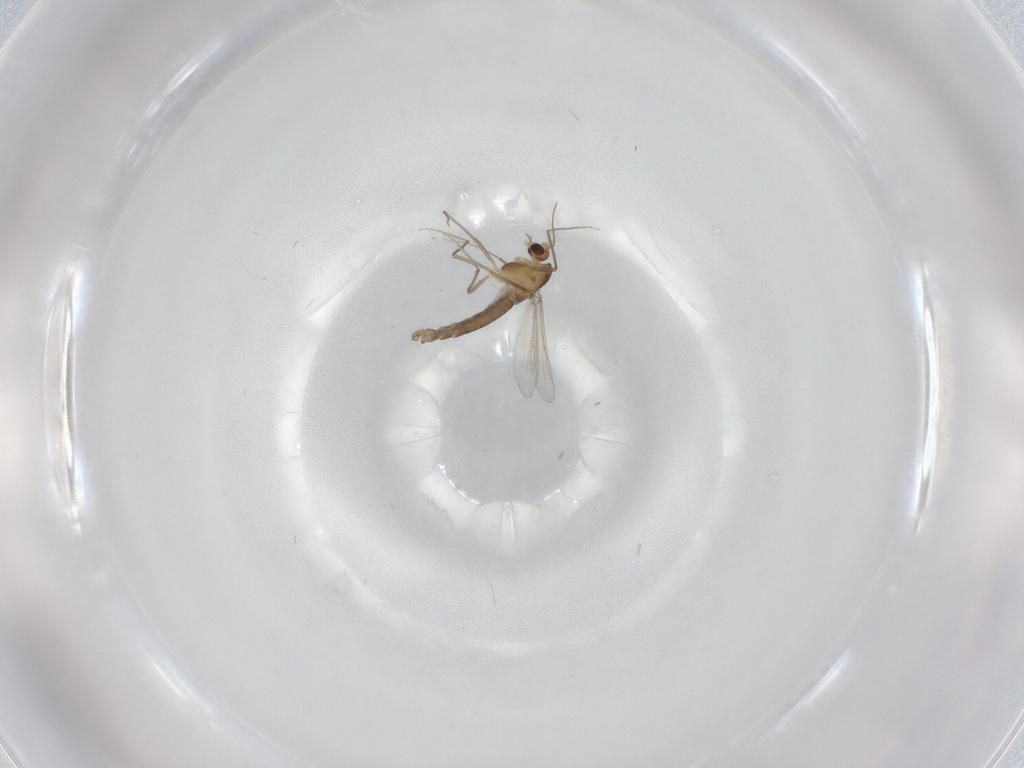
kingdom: Animalia
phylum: Arthropoda
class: Insecta
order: Diptera
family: Chironomidae
